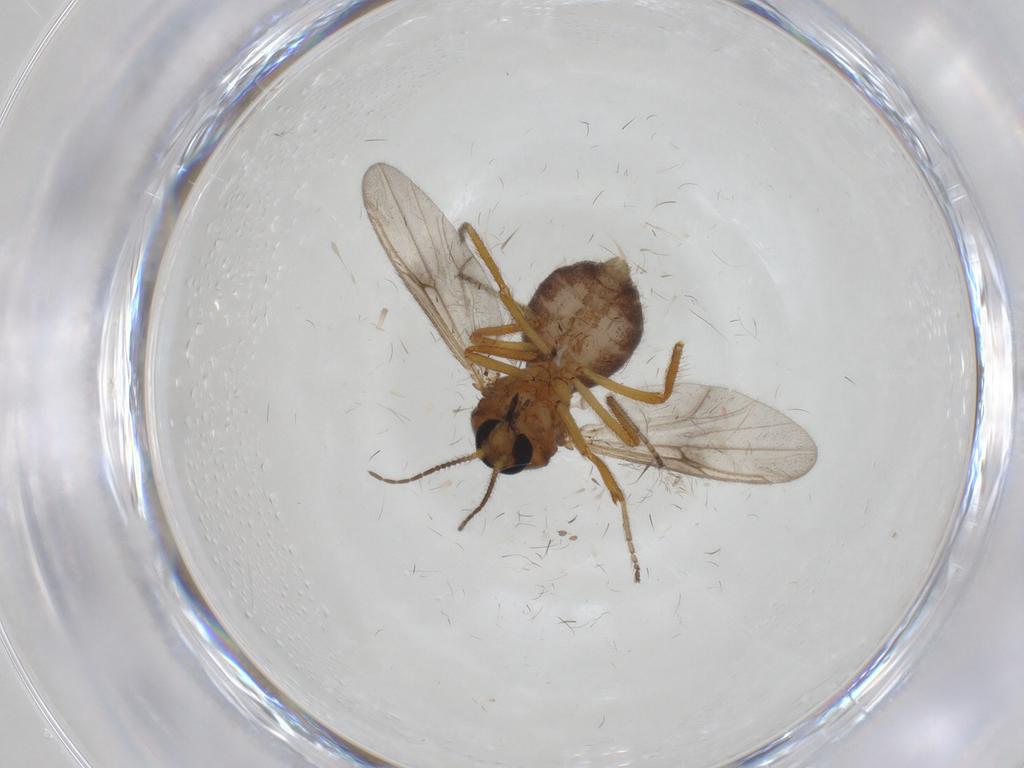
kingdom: Animalia
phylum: Arthropoda
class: Insecta
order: Diptera
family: Ceratopogonidae
